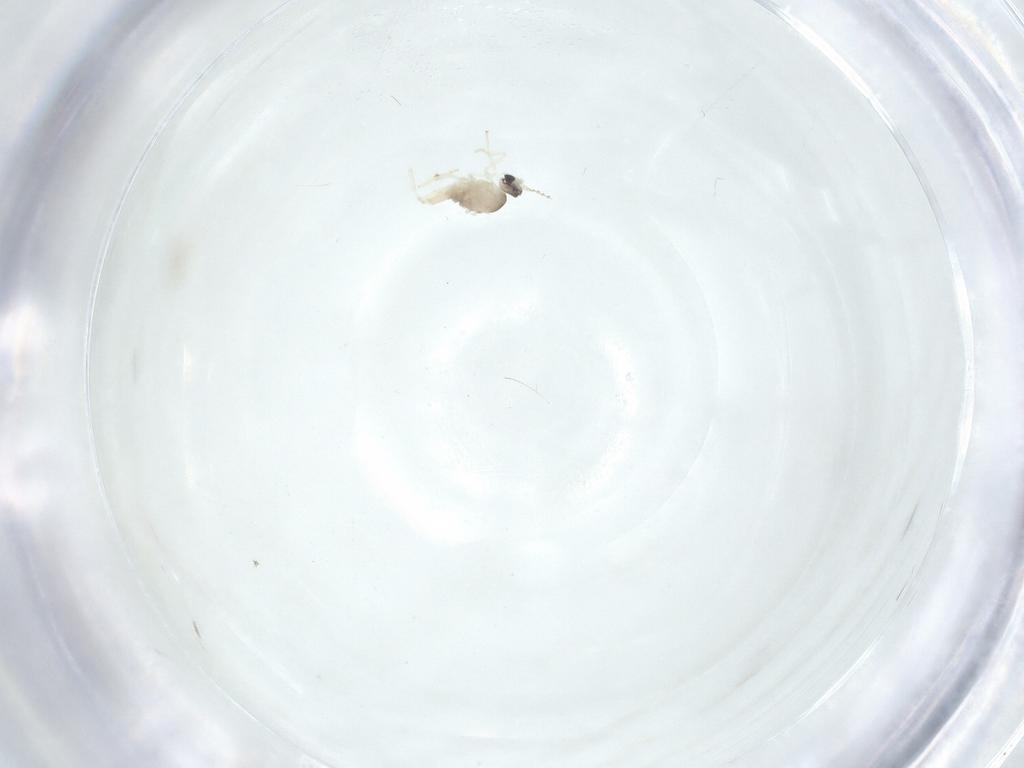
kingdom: Animalia
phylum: Arthropoda
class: Insecta
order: Diptera
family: Cecidomyiidae
